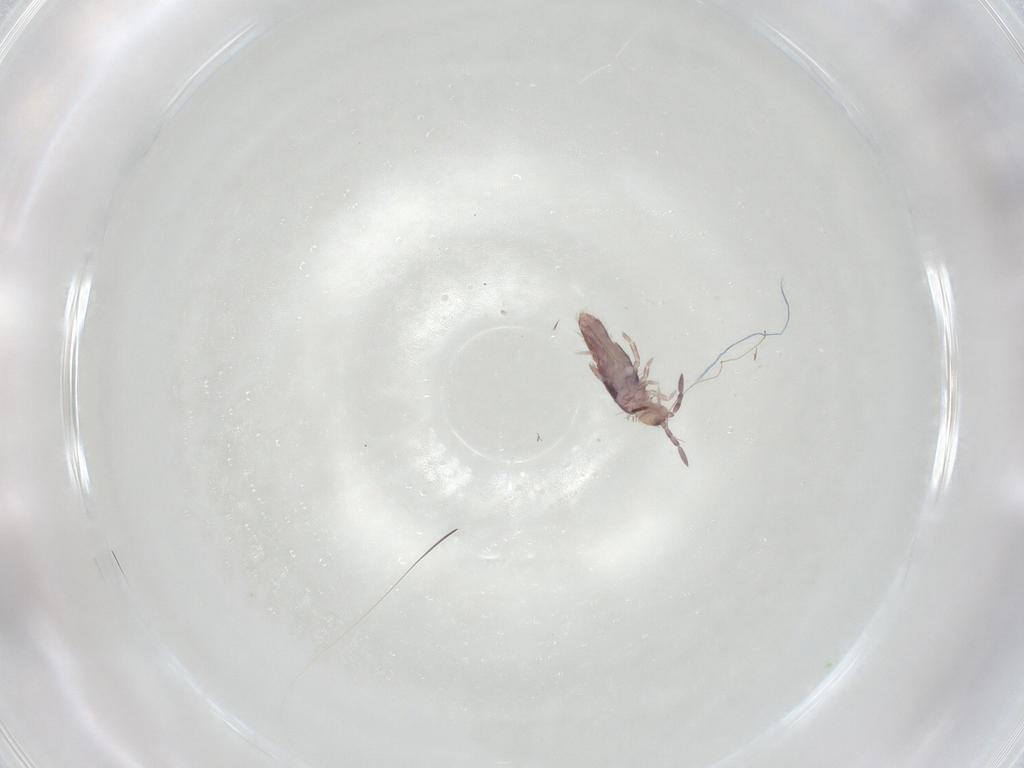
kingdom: Animalia
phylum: Arthropoda
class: Collembola
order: Entomobryomorpha
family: Entomobryidae
